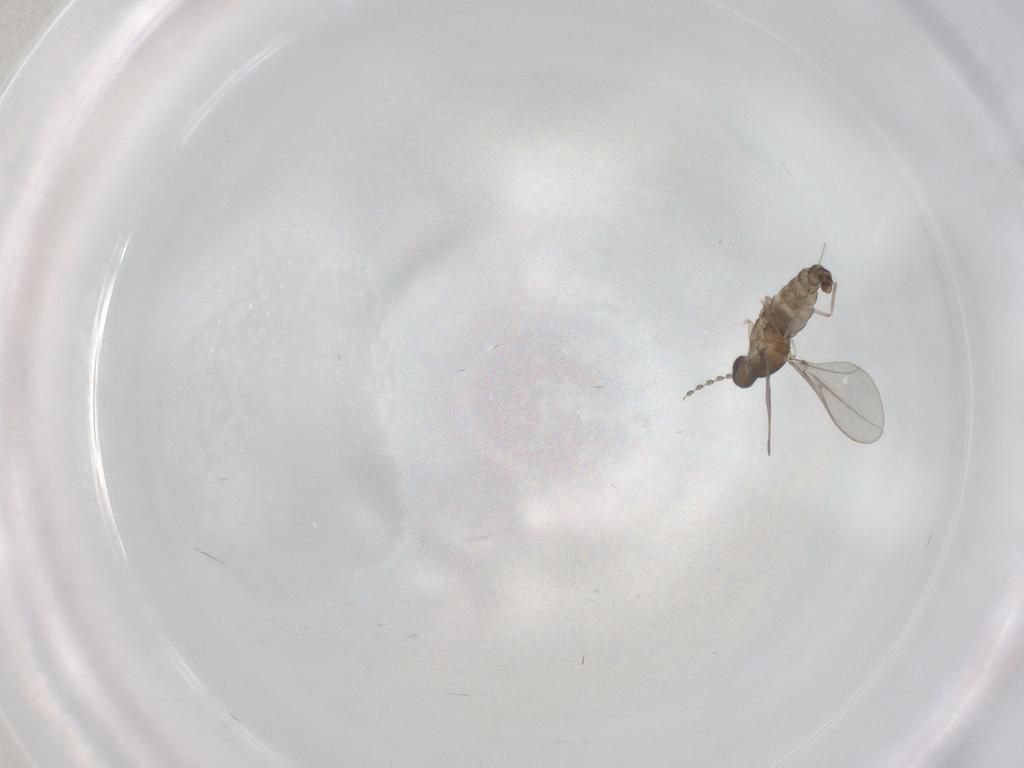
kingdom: Animalia
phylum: Arthropoda
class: Insecta
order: Diptera
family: Cecidomyiidae
